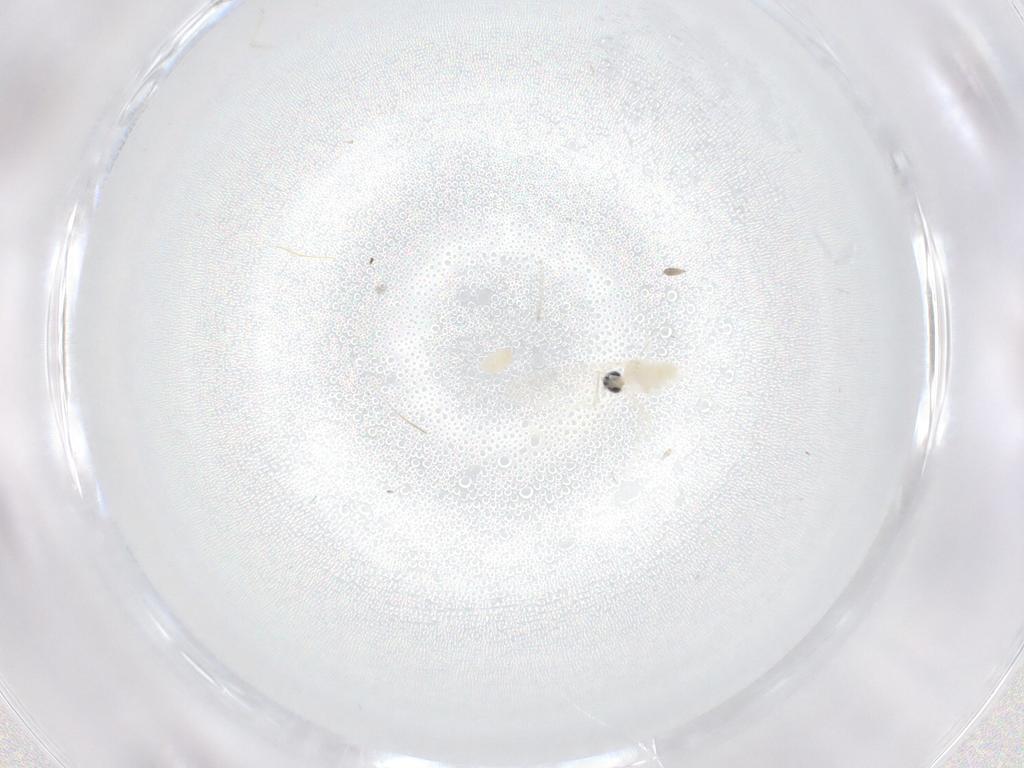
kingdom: Animalia
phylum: Arthropoda
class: Insecta
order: Diptera
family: Cecidomyiidae
